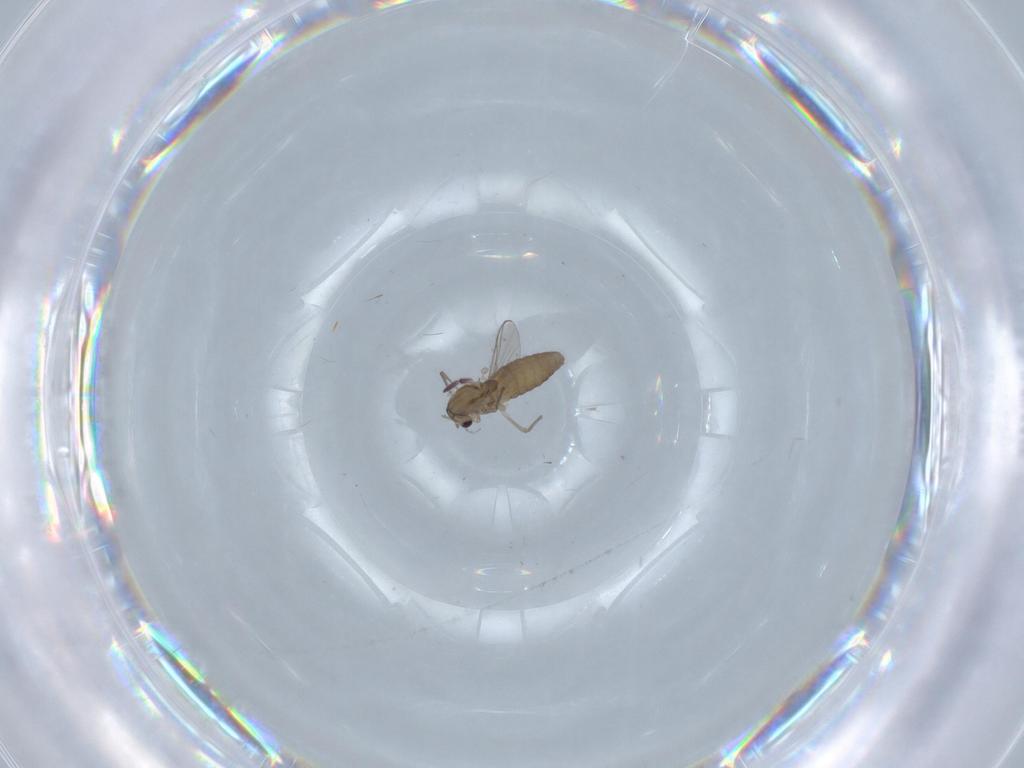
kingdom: Animalia
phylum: Arthropoda
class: Insecta
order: Diptera
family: Chironomidae
